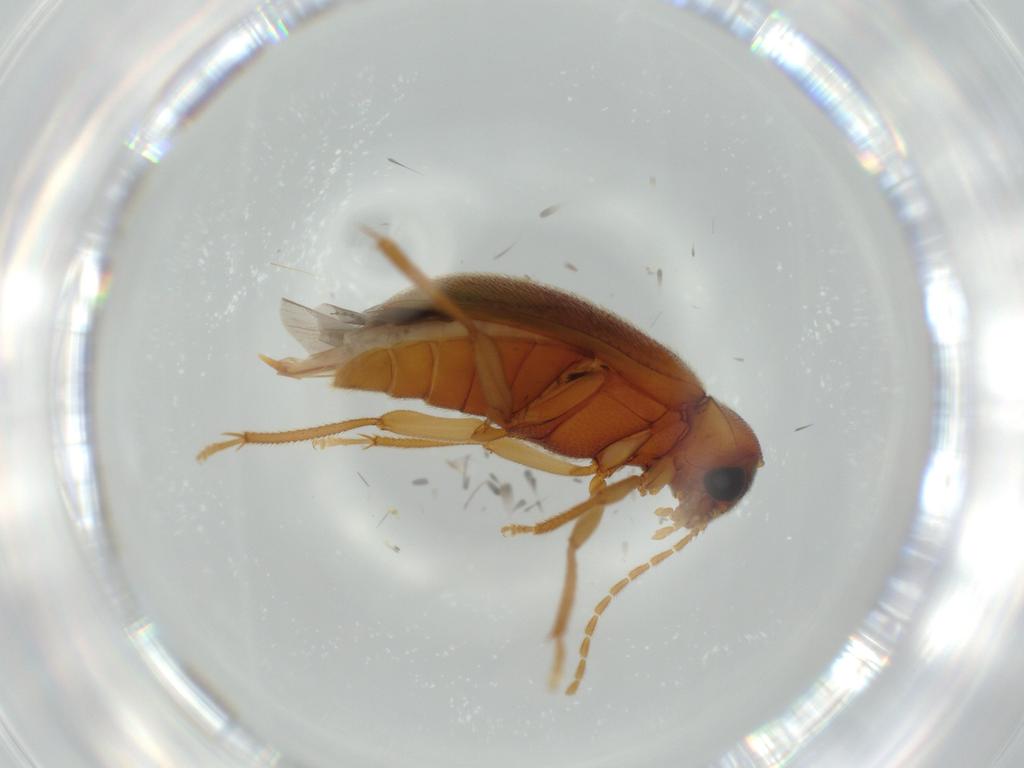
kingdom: Animalia
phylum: Arthropoda
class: Insecta
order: Coleoptera
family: Ptilodactylidae
